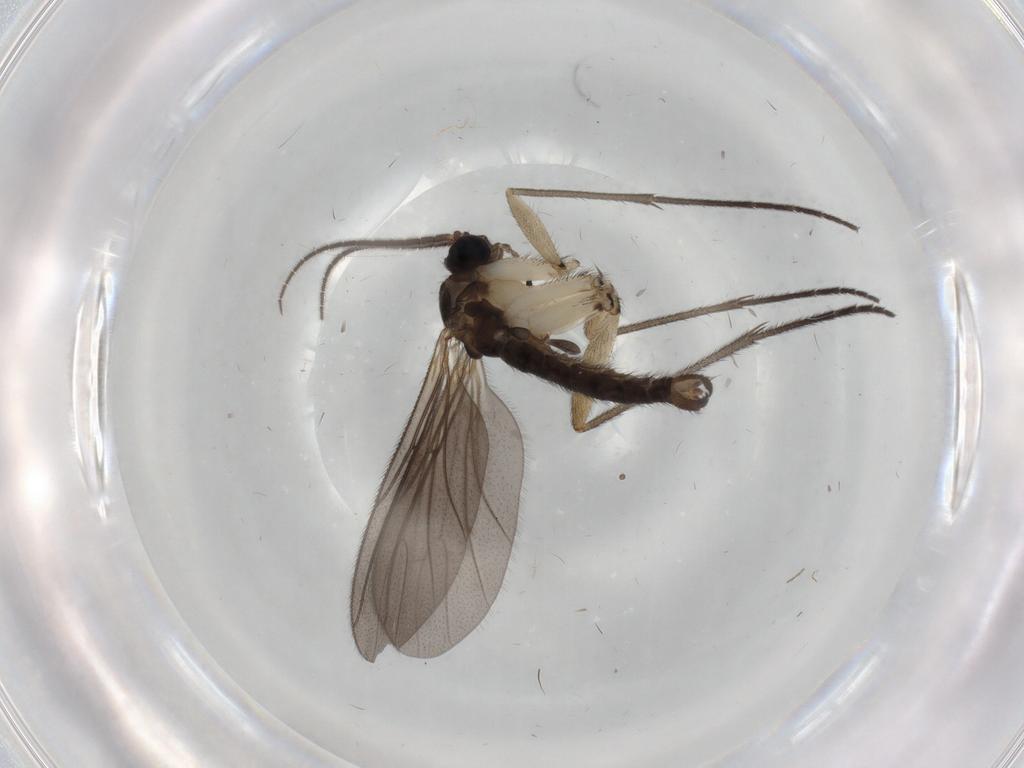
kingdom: Animalia
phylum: Arthropoda
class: Insecta
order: Diptera
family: Sciaridae
